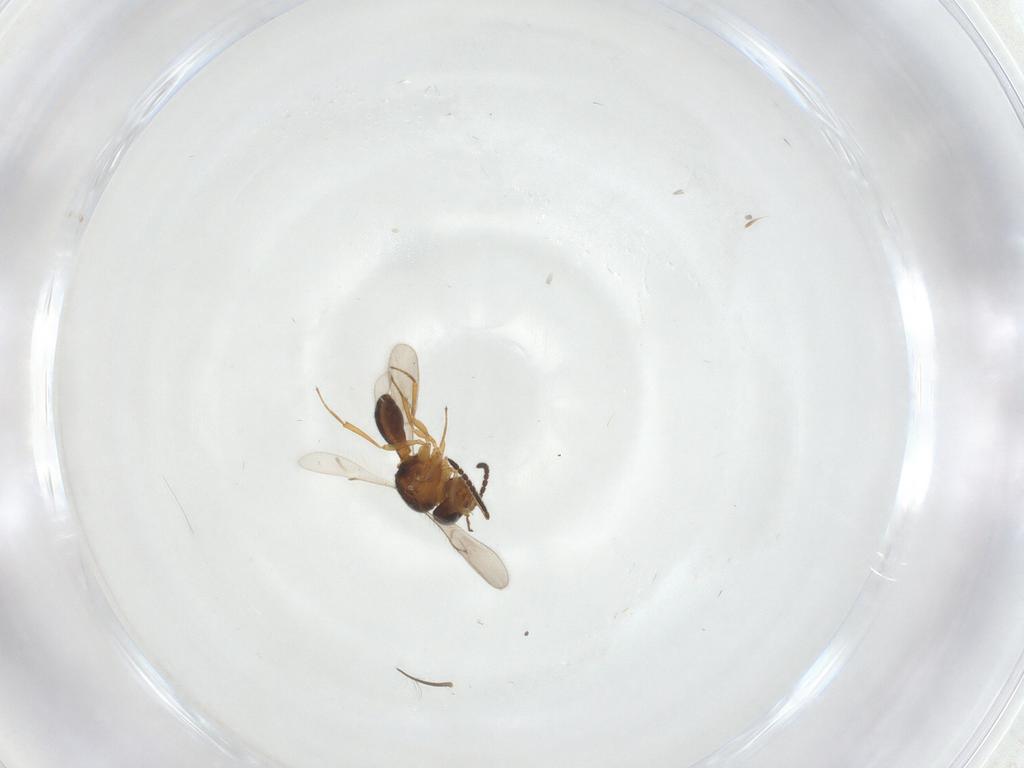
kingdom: Animalia
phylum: Arthropoda
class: Insecta
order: Hymenoptera
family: Scelionidae
